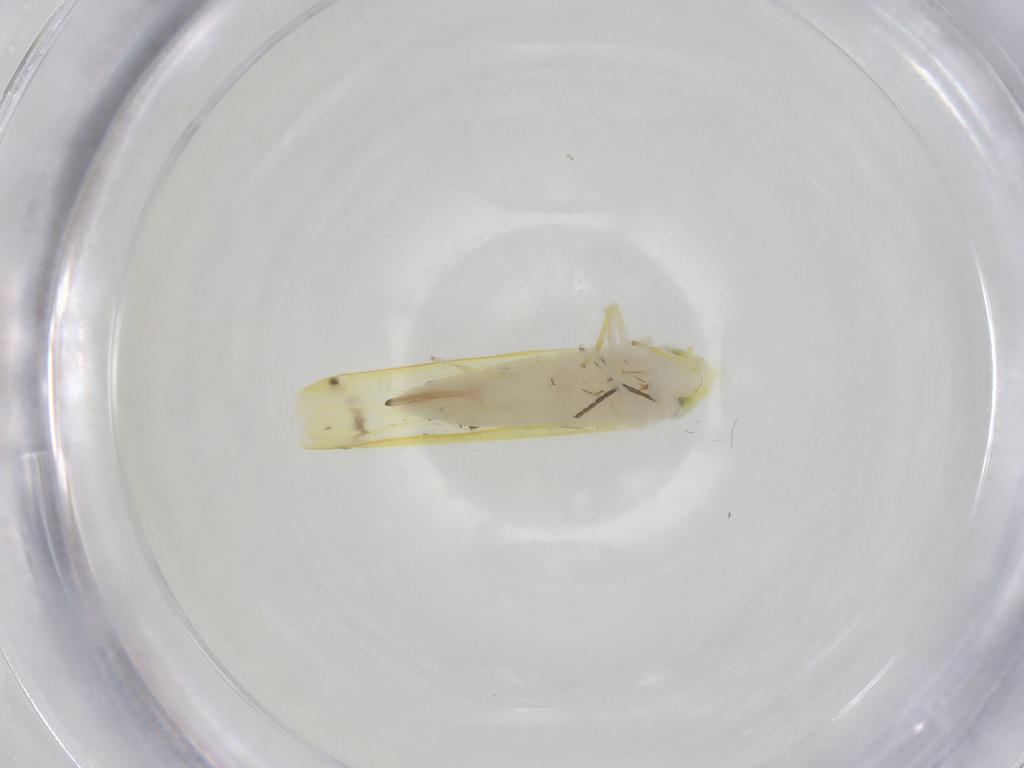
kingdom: Animalia
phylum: Arthropoda
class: Insecta
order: Hemiptera
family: Cicadellidae
